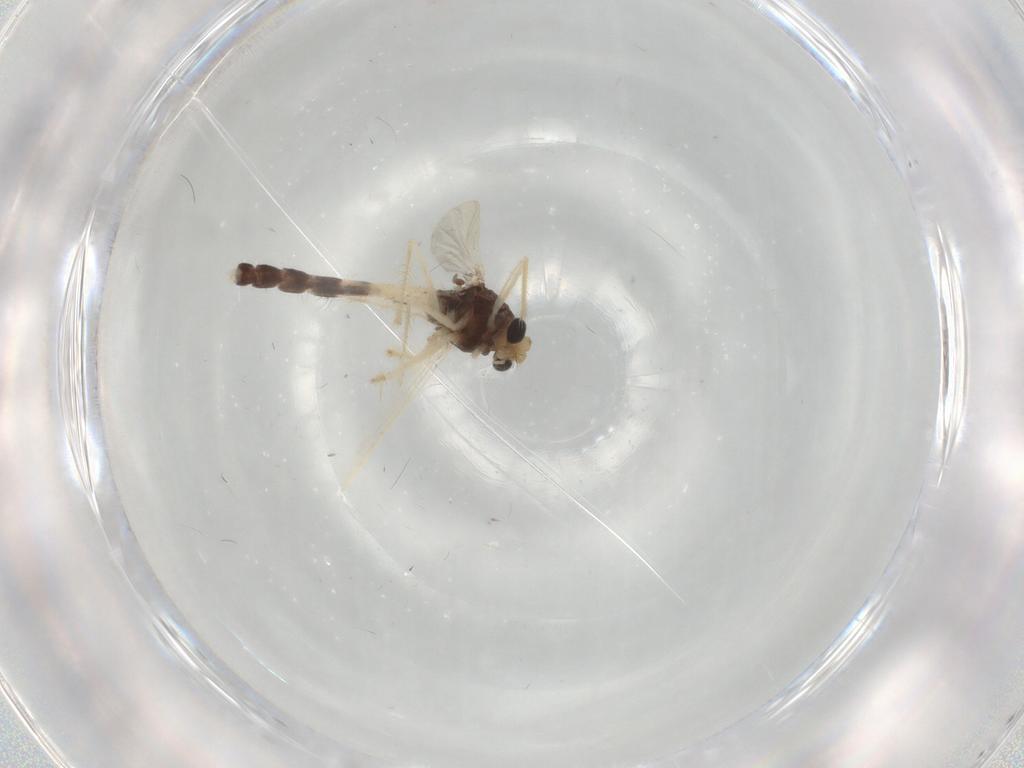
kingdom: Animalia
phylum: Arthropoda
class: Insecta
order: Diptera
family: Chironomidae
